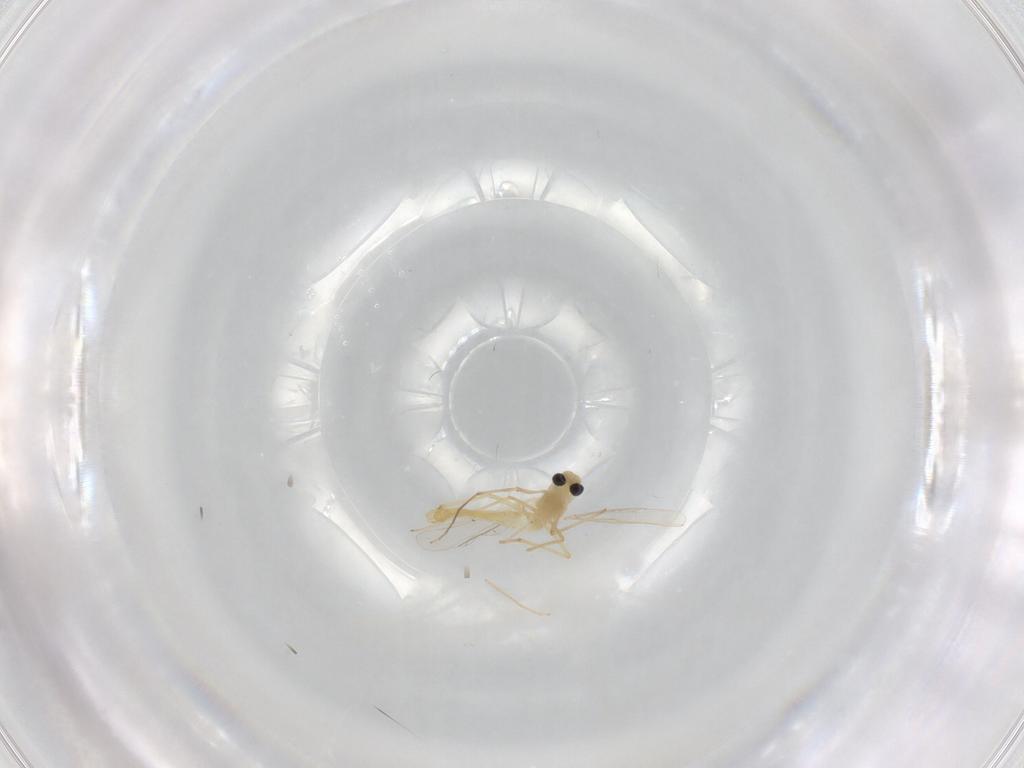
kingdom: Animalia
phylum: Arthropoda
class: Insecta
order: Diptera
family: Chironomidae
